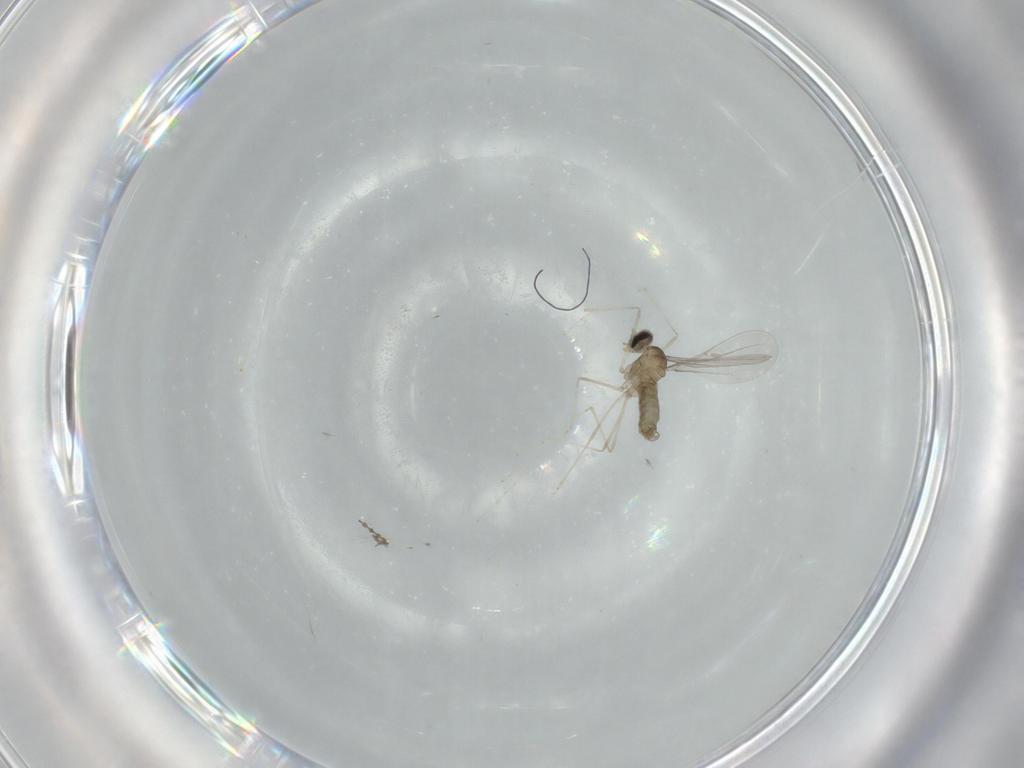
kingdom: Animalia
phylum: Arthropoda
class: Insecta
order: Diptera
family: Cecidomyiidae
